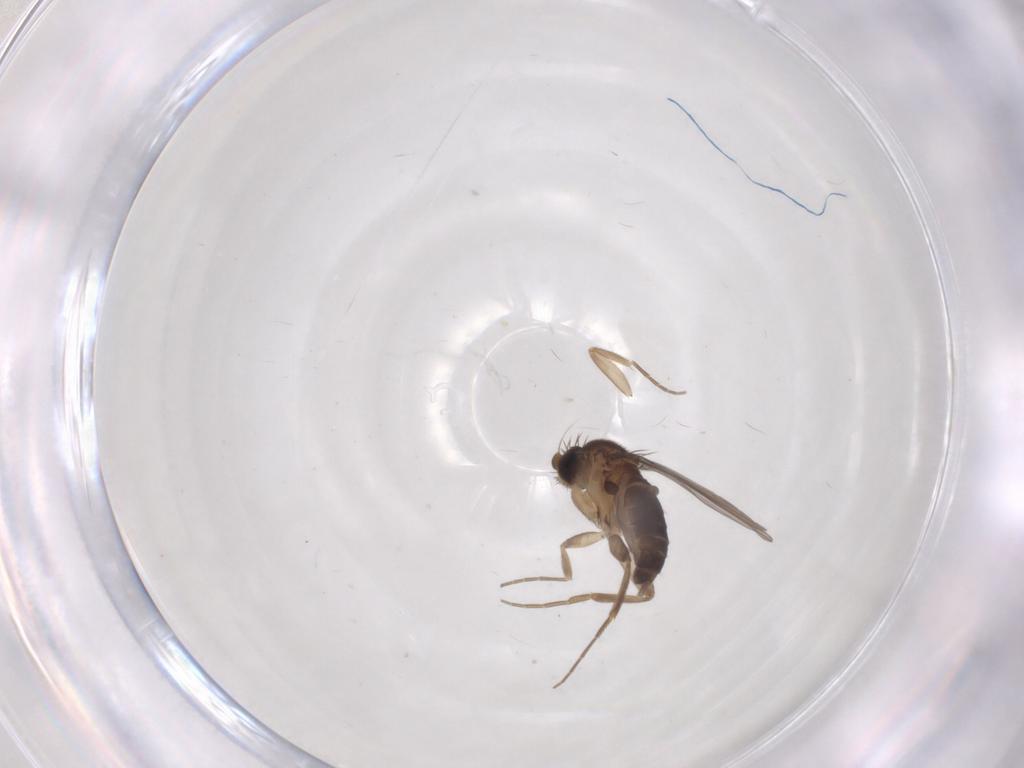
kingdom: Animalia
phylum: Arthropoda
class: Insecta
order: Diptera
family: Phoridae
